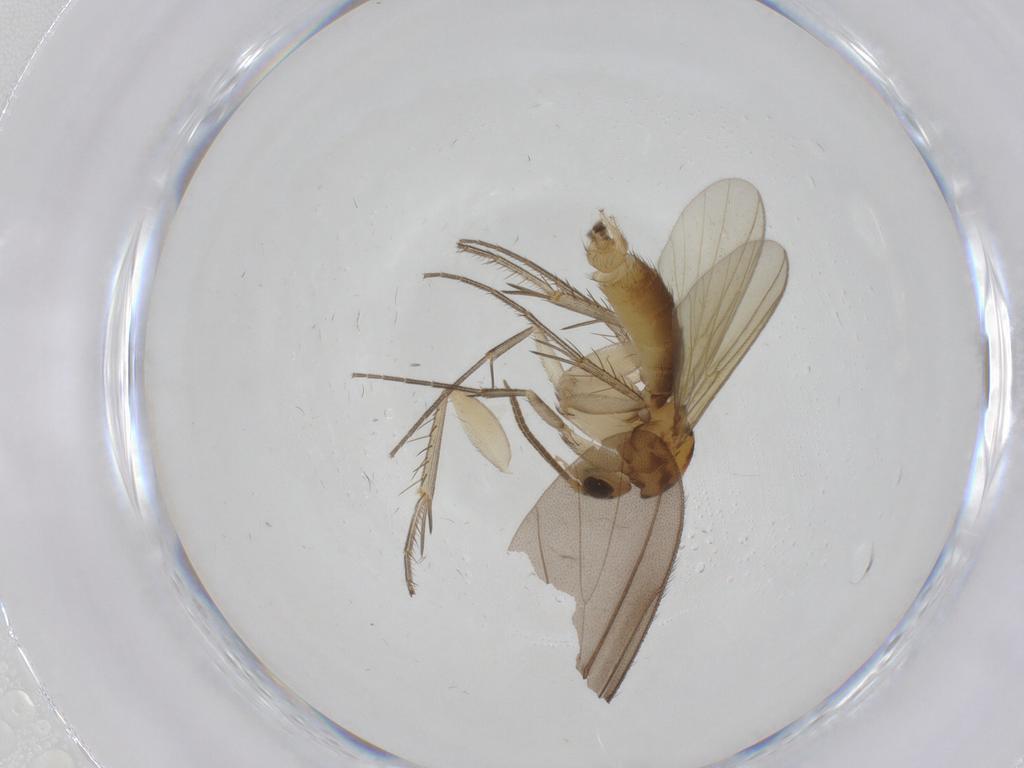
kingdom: Animalia
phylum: Arthropoda
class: Insecta
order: Diptera
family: Mycetophilidae
